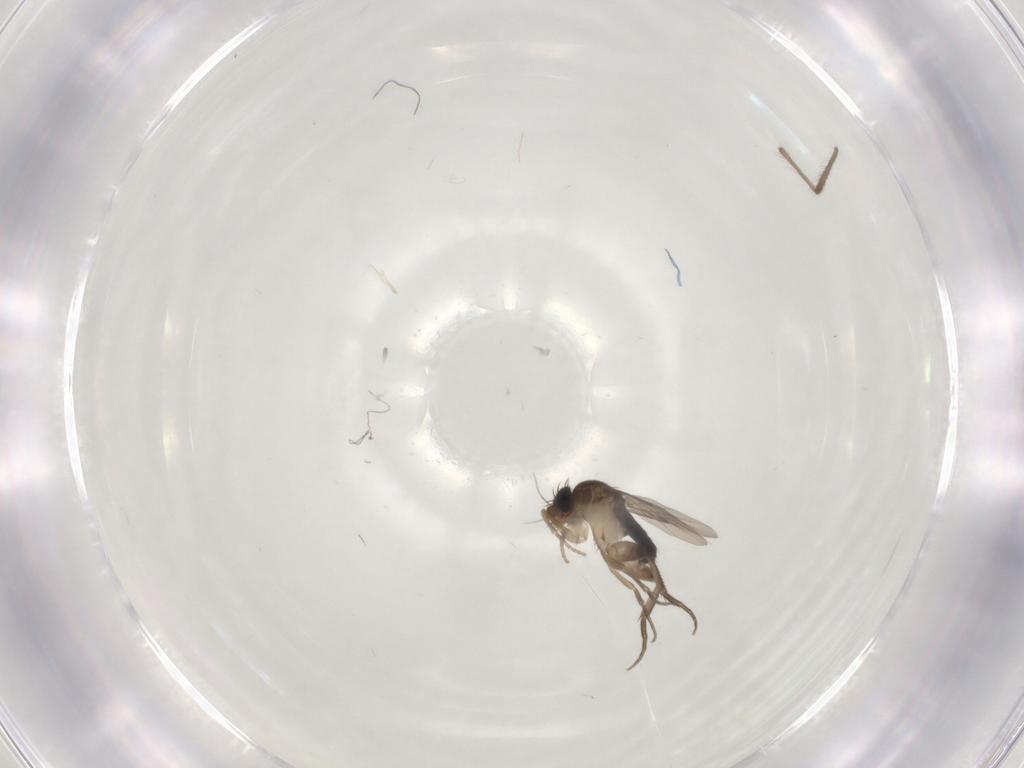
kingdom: Animalia
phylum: Arthropoda
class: Insecta
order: Diptera
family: Phoridae
